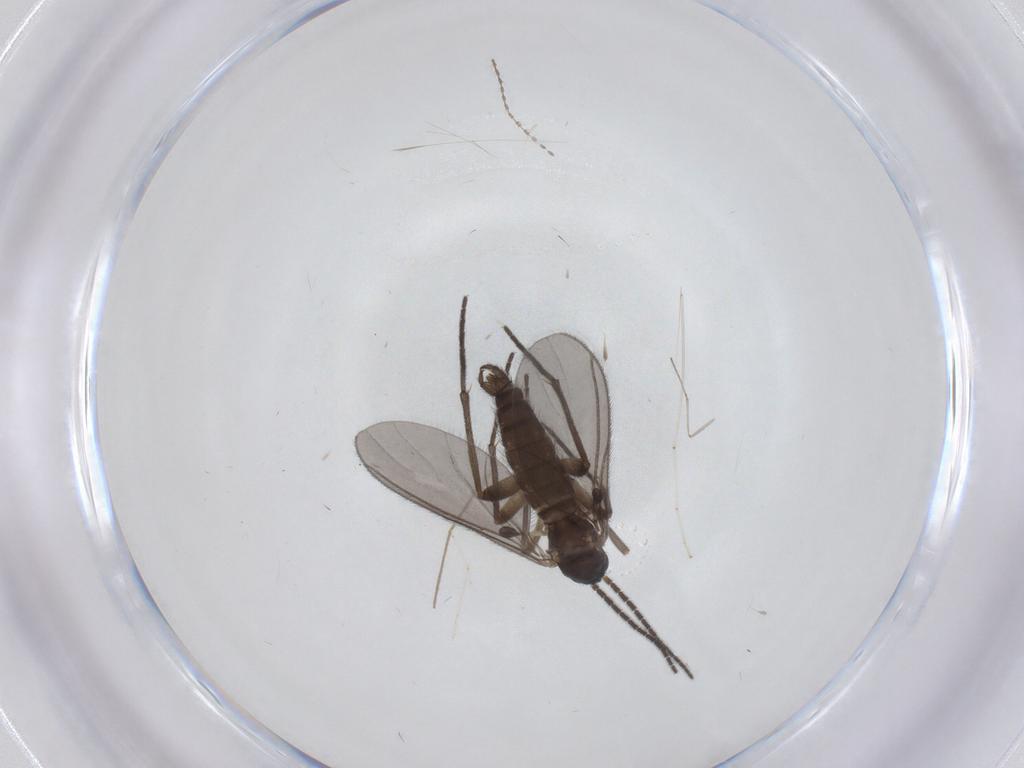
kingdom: Animalia
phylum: Arthropoda
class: Insecta
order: Diptera
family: Sciaridae
